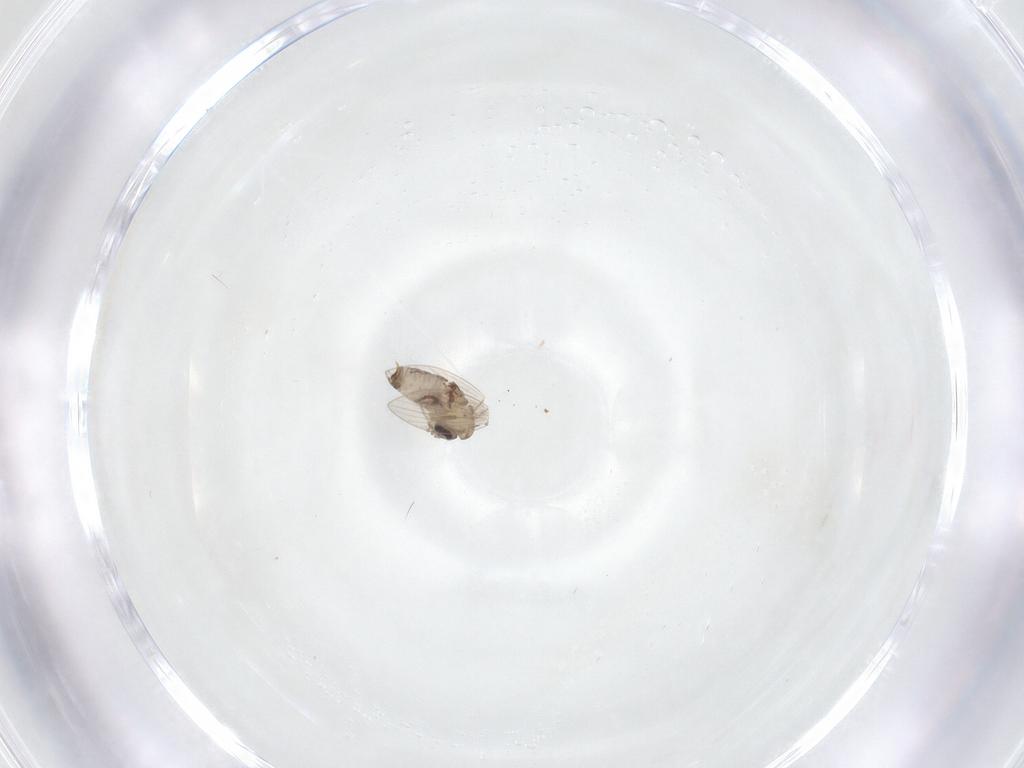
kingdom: Animalia
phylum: Arthropoda
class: Insecta
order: Diptera
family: Psychodidae
